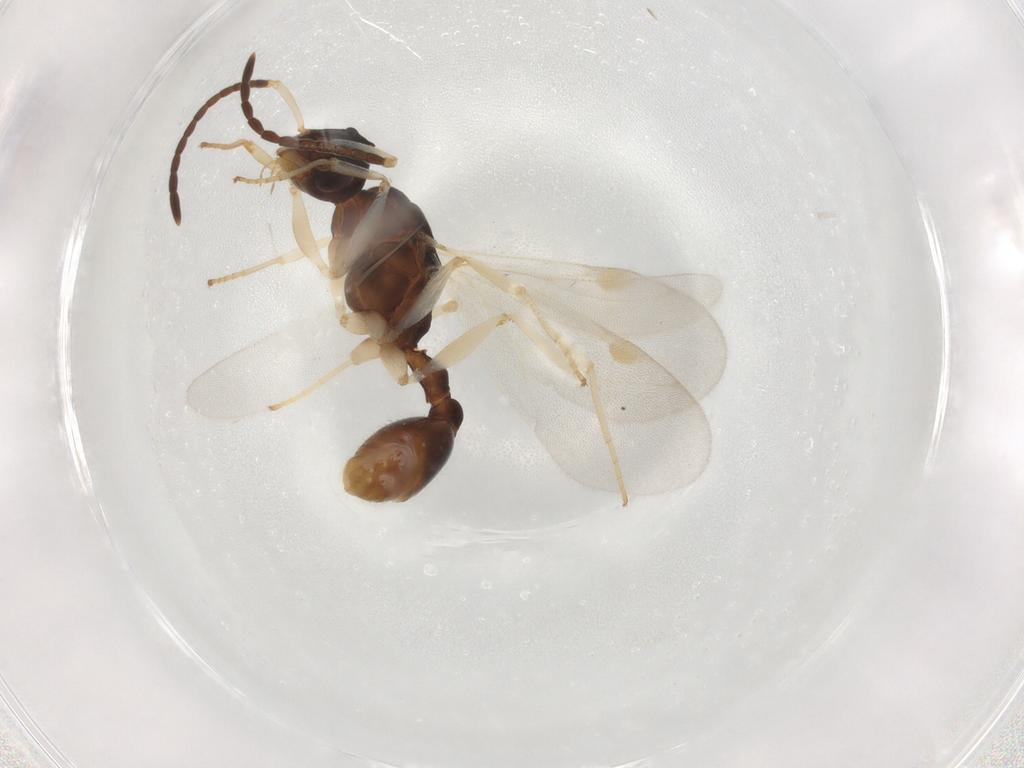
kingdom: Animalia
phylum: Arthropoda
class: Insecta
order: Hymenoptera
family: Formicidae
